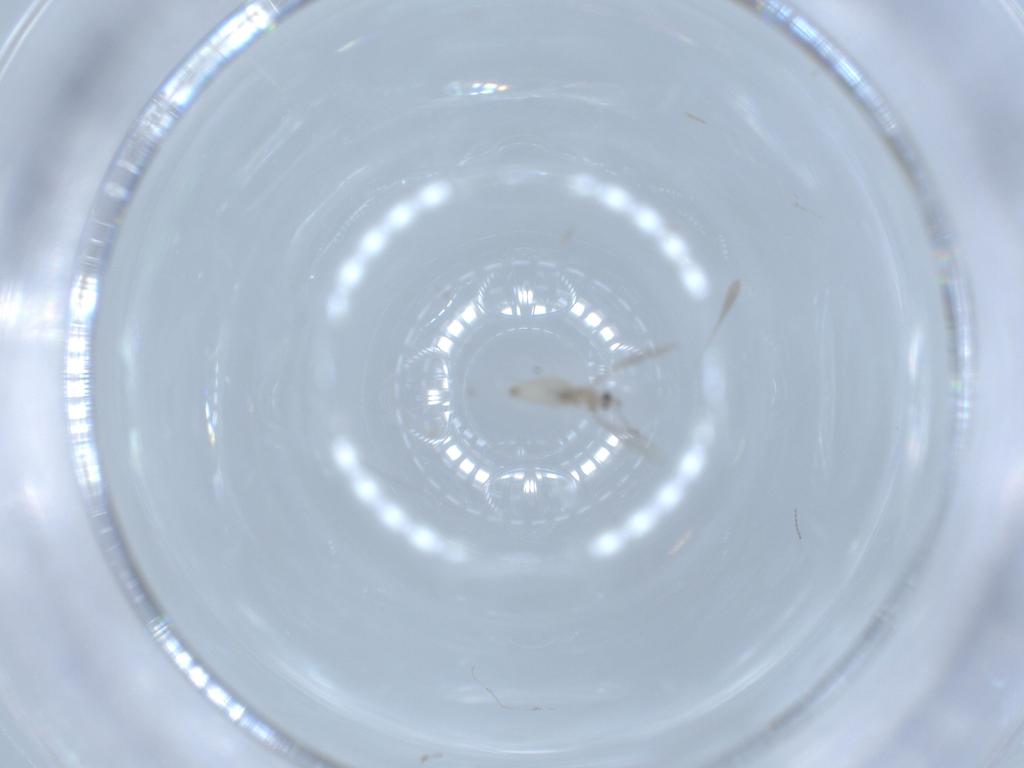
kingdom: Animalia
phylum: Arthropoda
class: Insecta
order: Diptera
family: Cecidomyiidae
